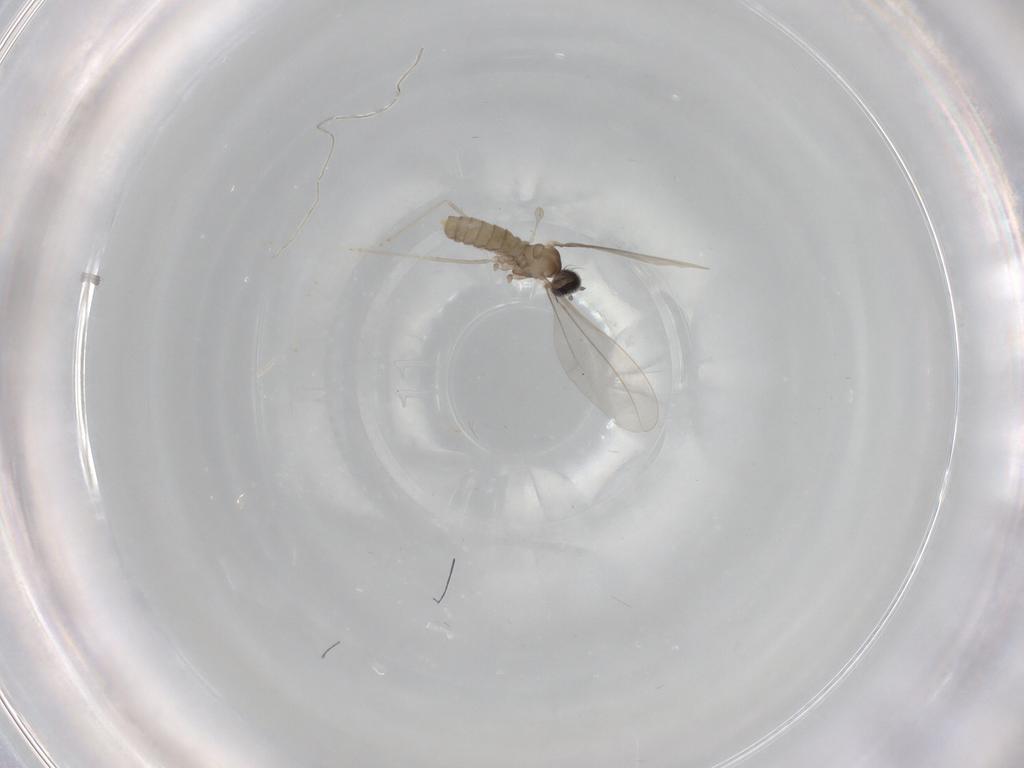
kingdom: Animalia
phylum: Arthropoda
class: Insecta
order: Diptera
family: Cecidomyiidae
